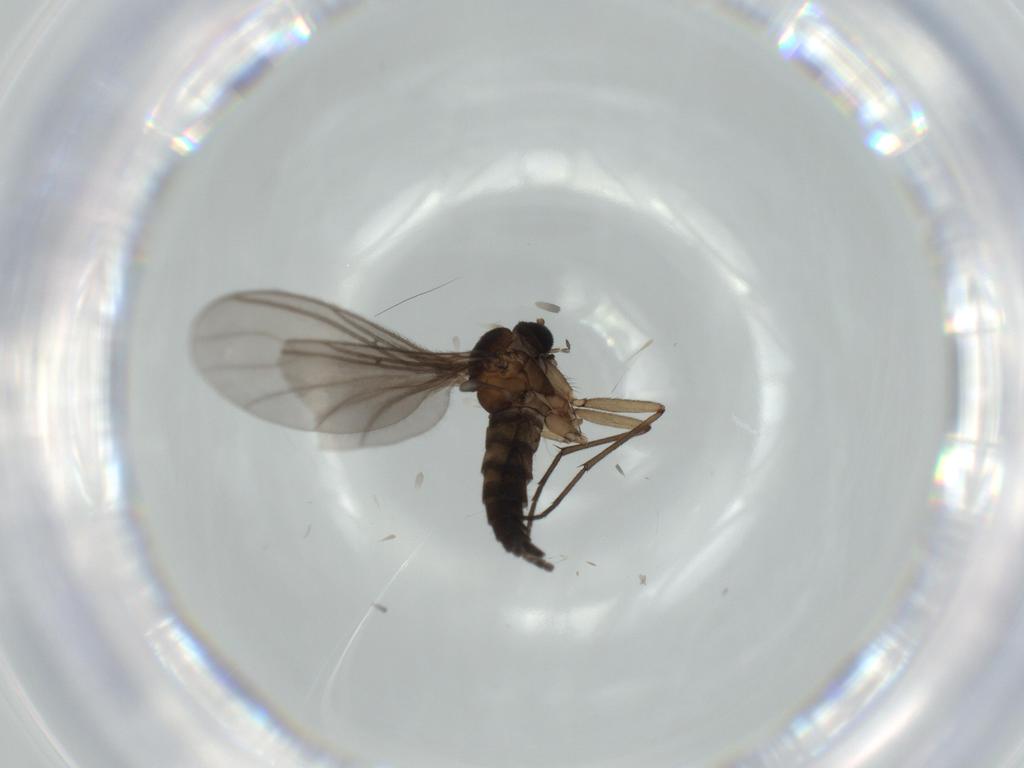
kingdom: Animalia
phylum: Arthropoda
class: Insecta
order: Diptera
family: Sciaridae
